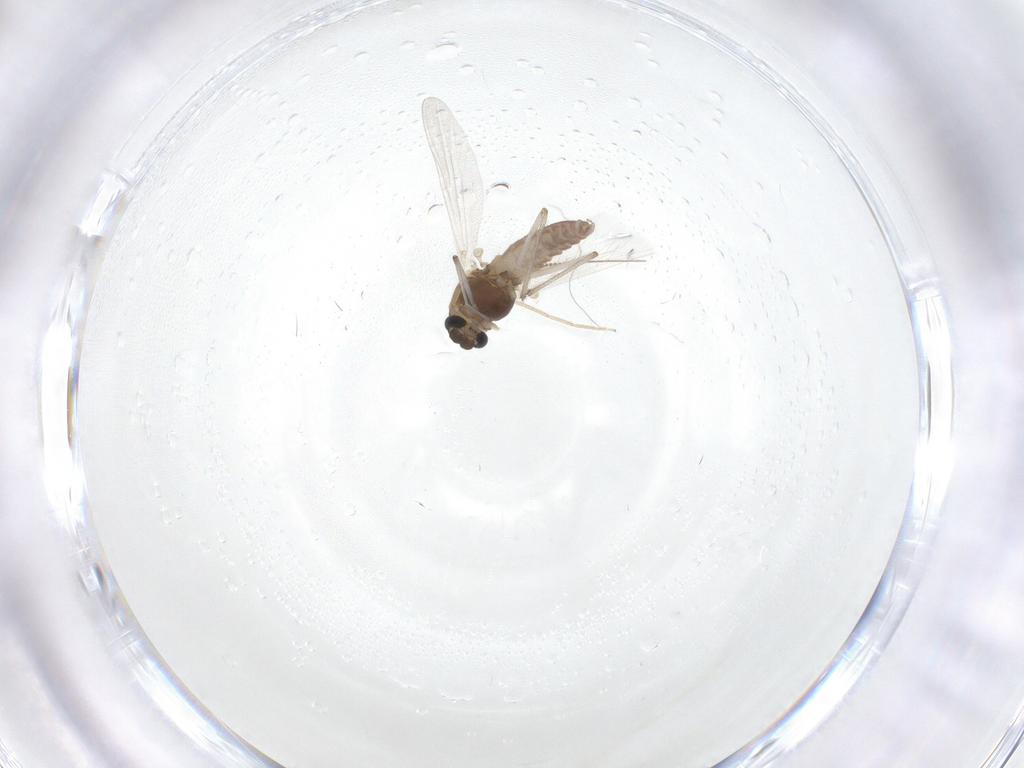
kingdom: Animalia
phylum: Arthropoda
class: Insecta
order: Diptera
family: Chironomidae
